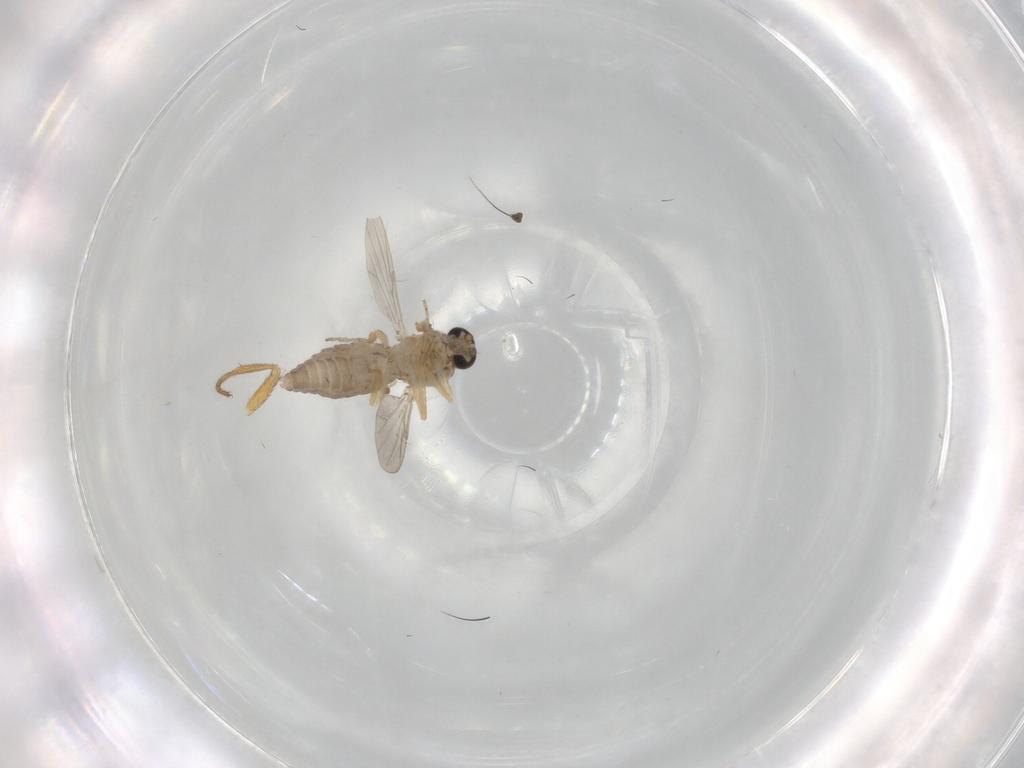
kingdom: Animalia
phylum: Arthropoda
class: Insecta
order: Diptera
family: Ceratopogonidae
